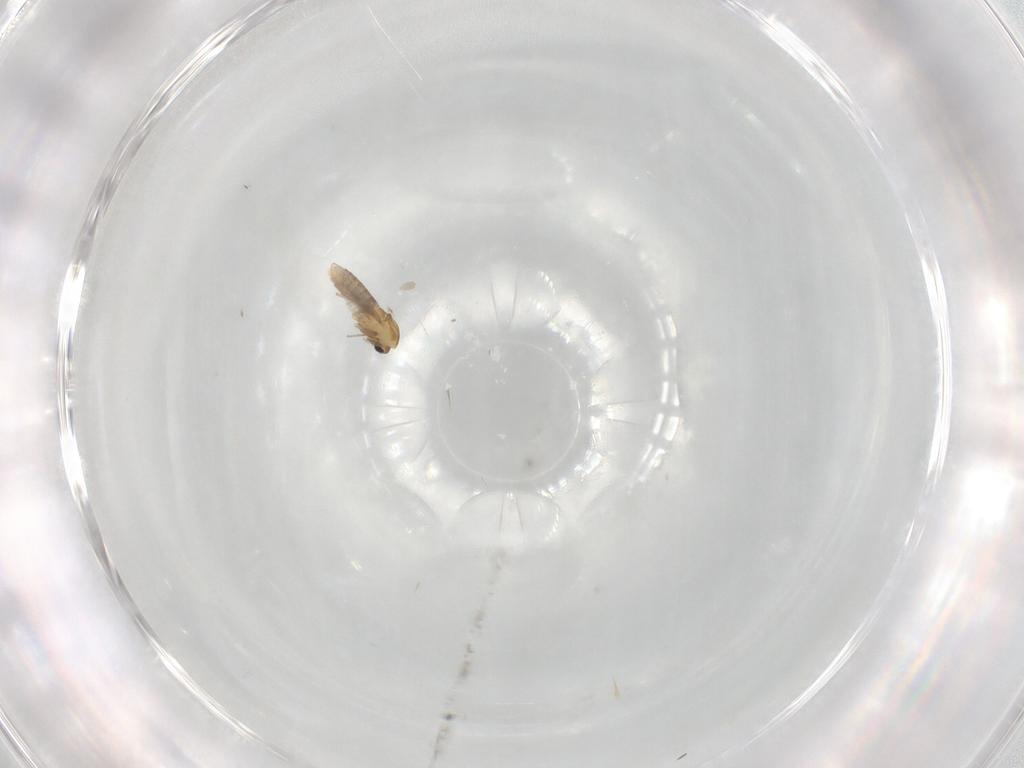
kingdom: Animalia
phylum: Arthropoda
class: Insecta
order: Diptera
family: Chironomidae
